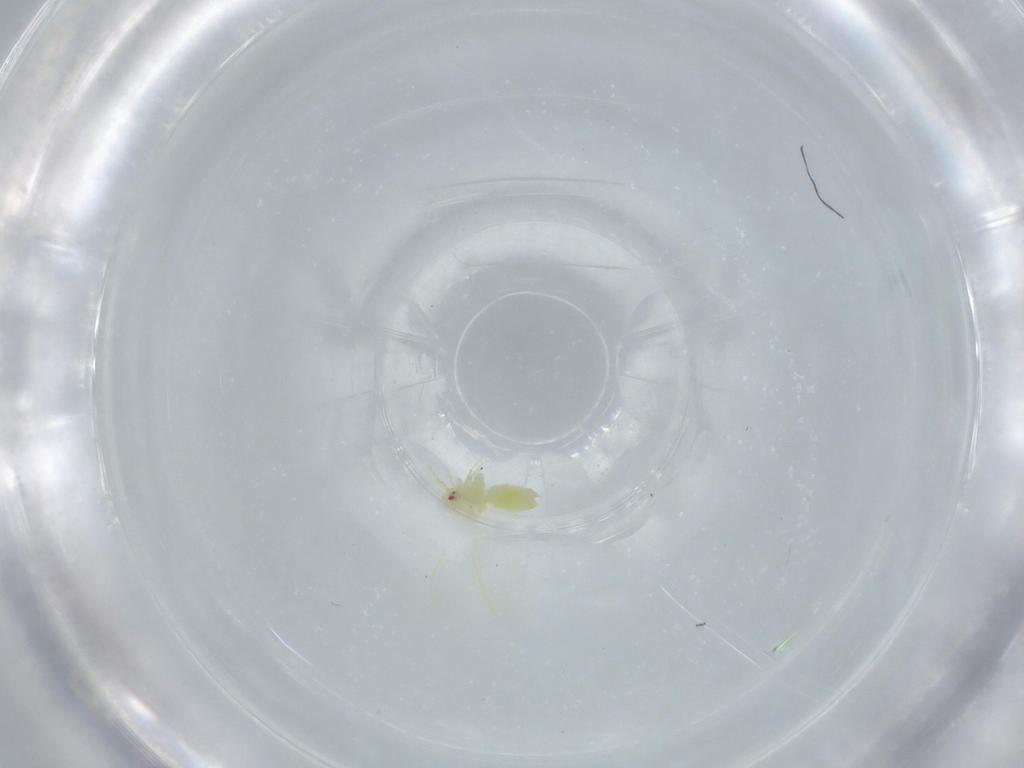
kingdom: Animalia
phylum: Arthropoda
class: Insecta
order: Hemiptera
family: Aleyrodidae
